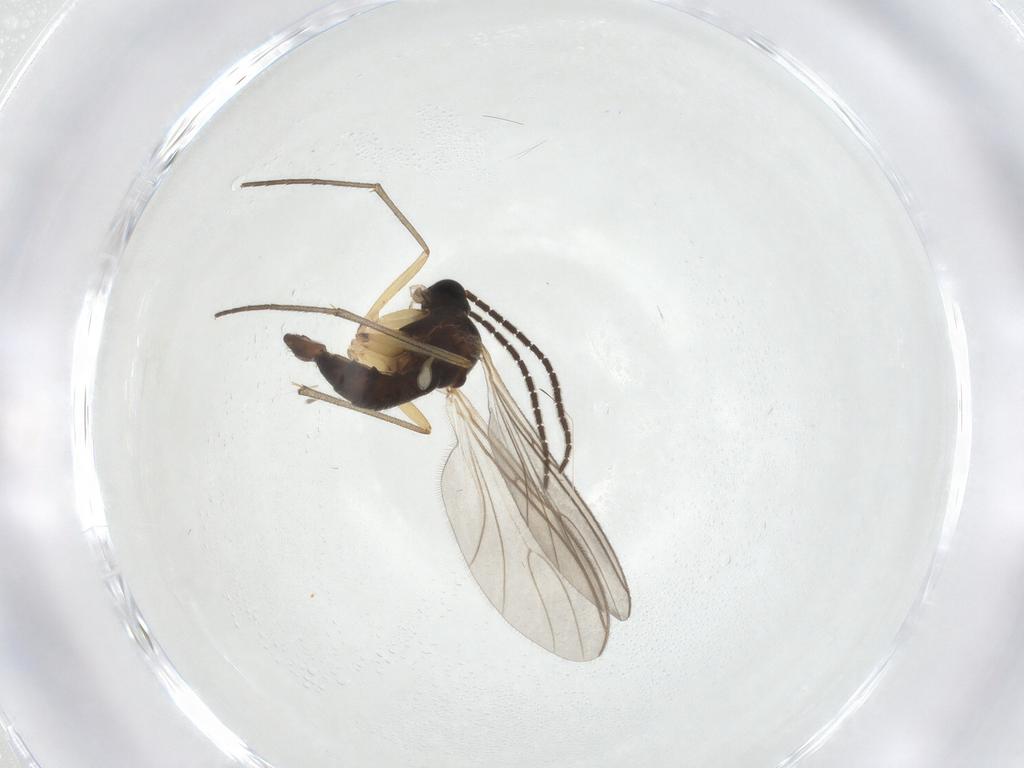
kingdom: Animalia
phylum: Arthropoda
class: Insecta
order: Diptera
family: Sciaridae
